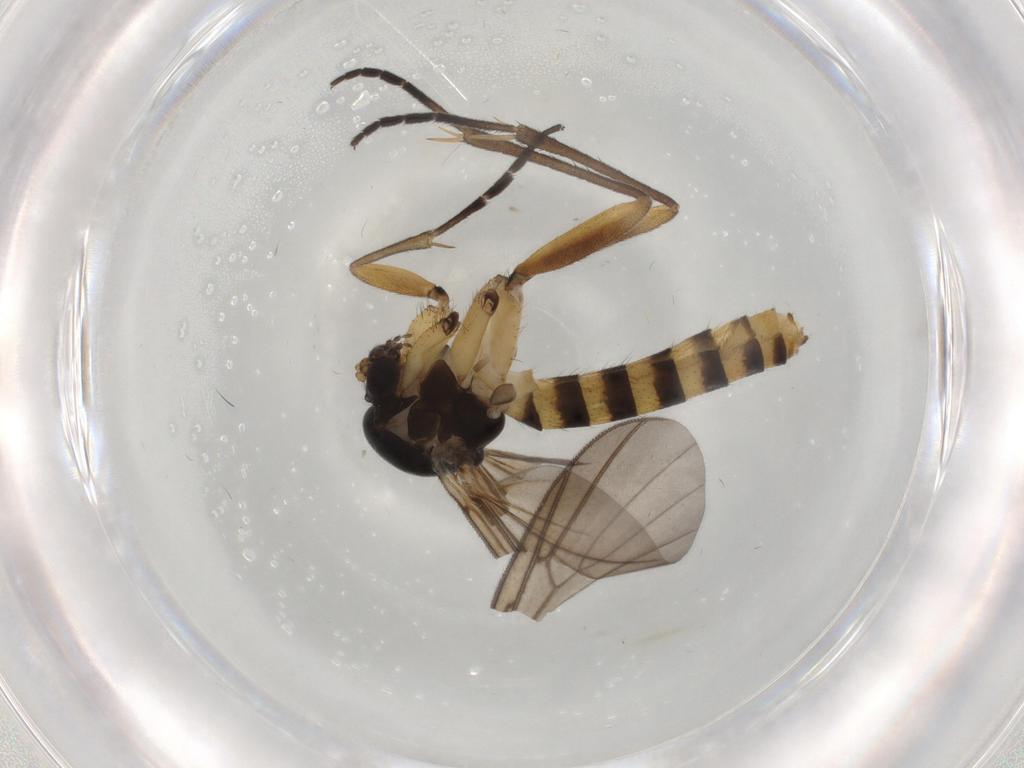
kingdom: Animalia
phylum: Arthropoda
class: Insecta
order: Diptera
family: Mycetophilidae
